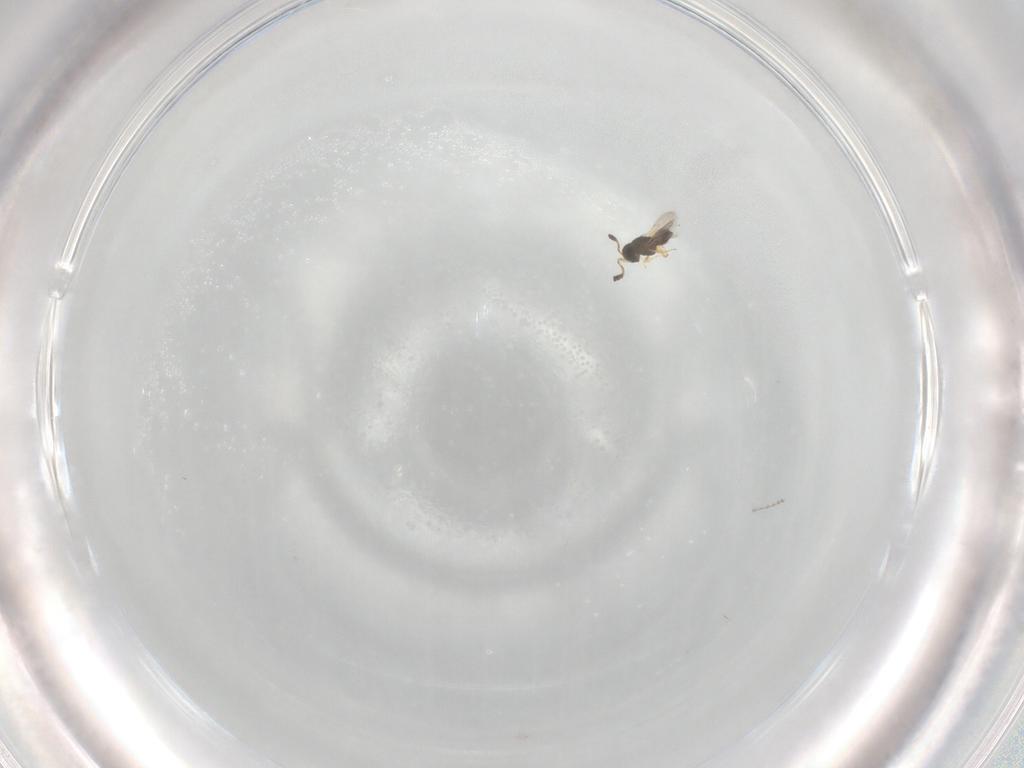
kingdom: Animalia
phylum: Arthropoda
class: Insecta
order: Hymenoptera
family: Scelionidae
